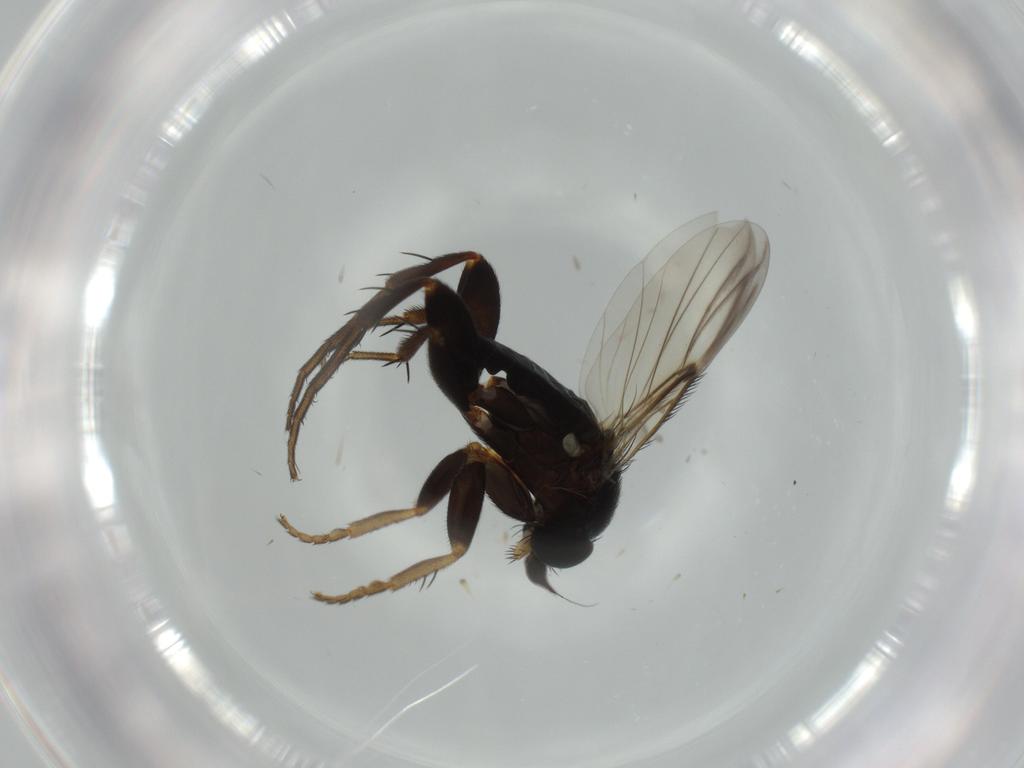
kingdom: Animalia
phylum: Arthropoda
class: Insecta
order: Diptera
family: Phoridae
